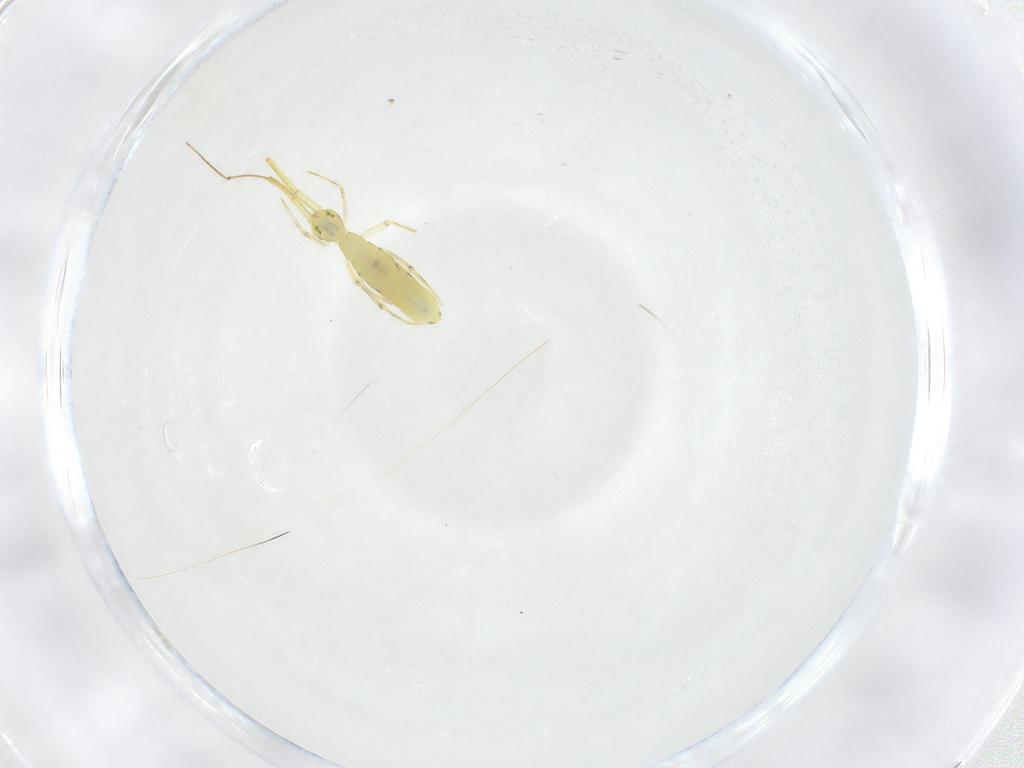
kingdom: Animalia
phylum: Arthropoda
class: Collembola
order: Entomobryomorpha
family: Entomobryidae
